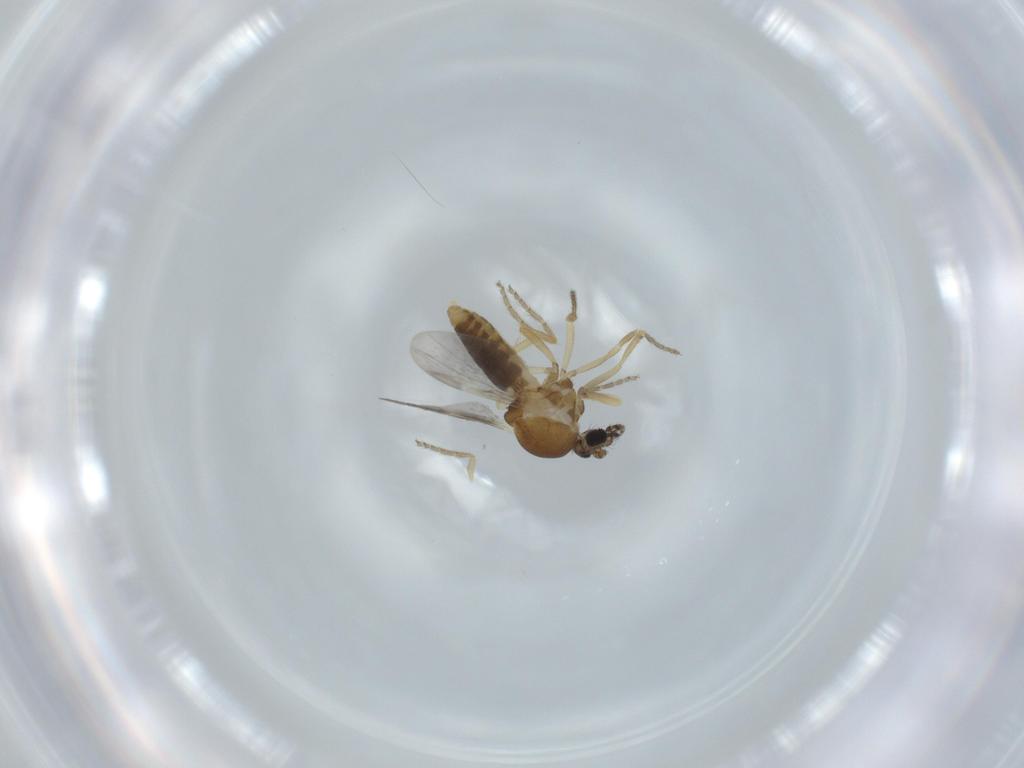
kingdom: Animalia
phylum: Arthropoda
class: Insecta
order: Diptera
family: Ceratopogonidae
